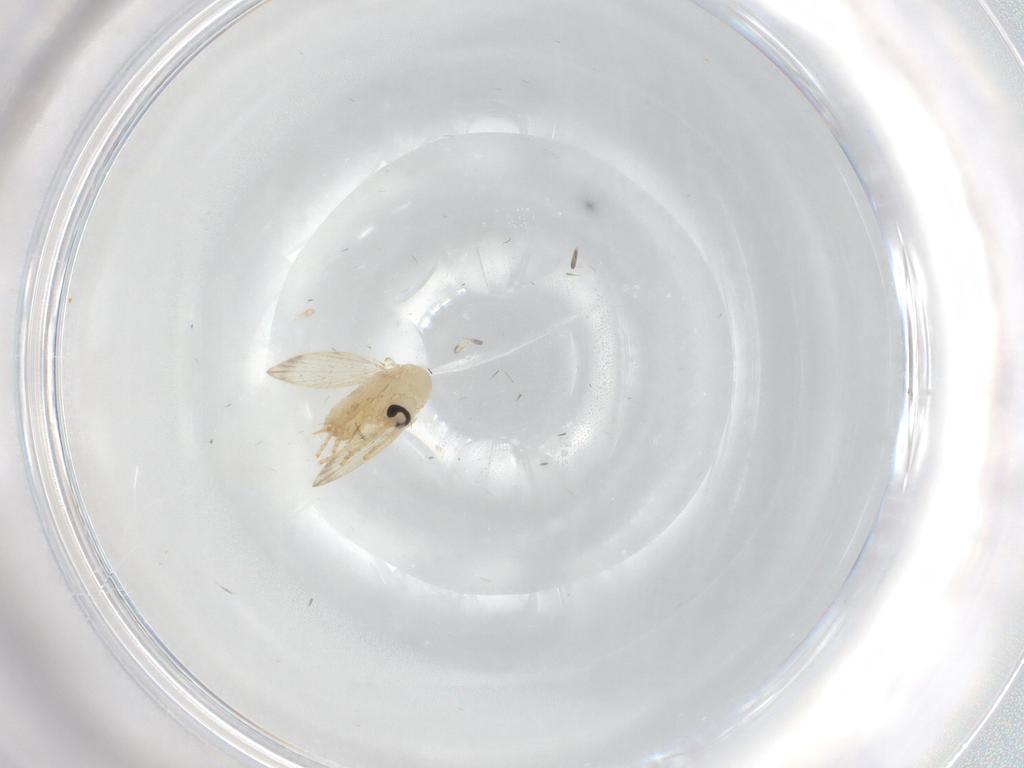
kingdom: Animalia
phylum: Arthropoda
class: Insecta
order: Diptera
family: Psychodidae
